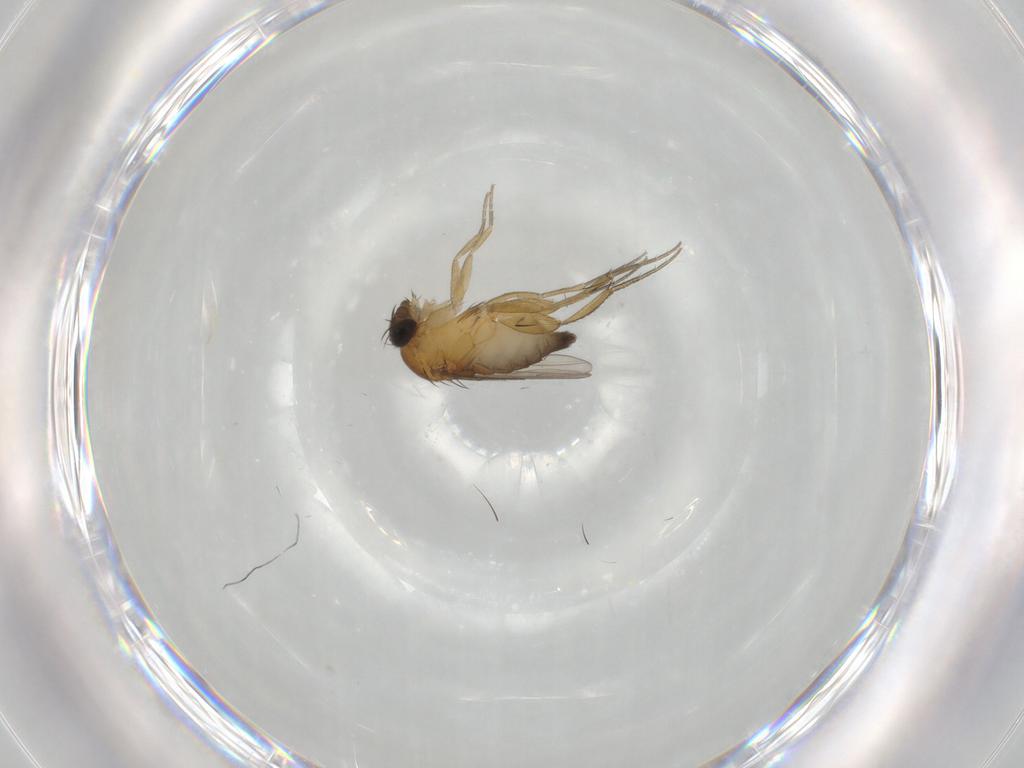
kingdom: Animalia
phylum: Arthropoda
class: Insecta
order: Diptera
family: Phoridae
